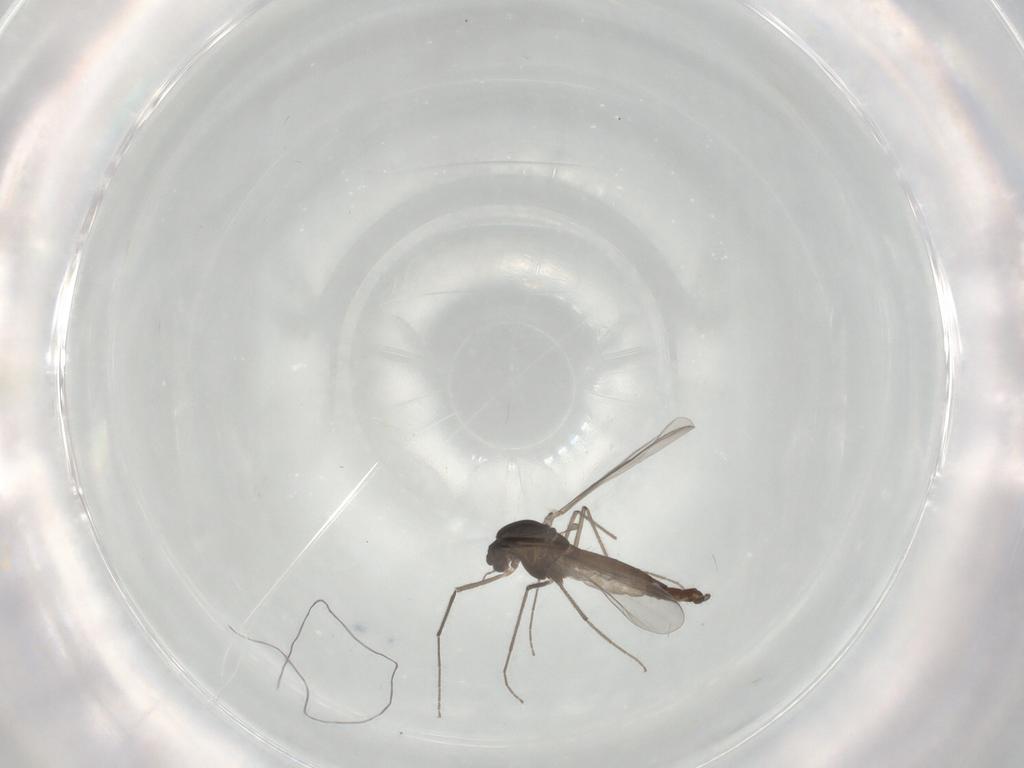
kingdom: Animalia
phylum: Arthropoda
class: Insecta
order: Diptera
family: Chironomidae
